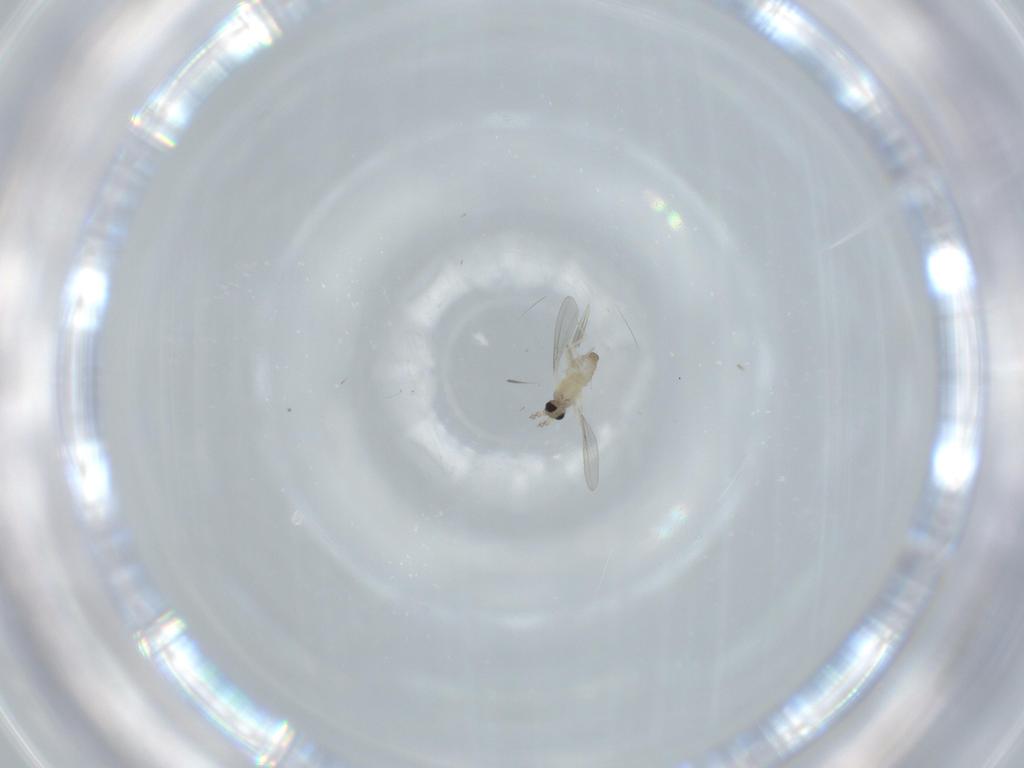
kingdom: Animalia
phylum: Arthropoda
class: Insecta
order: Diptera
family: Cecidomyiidae
